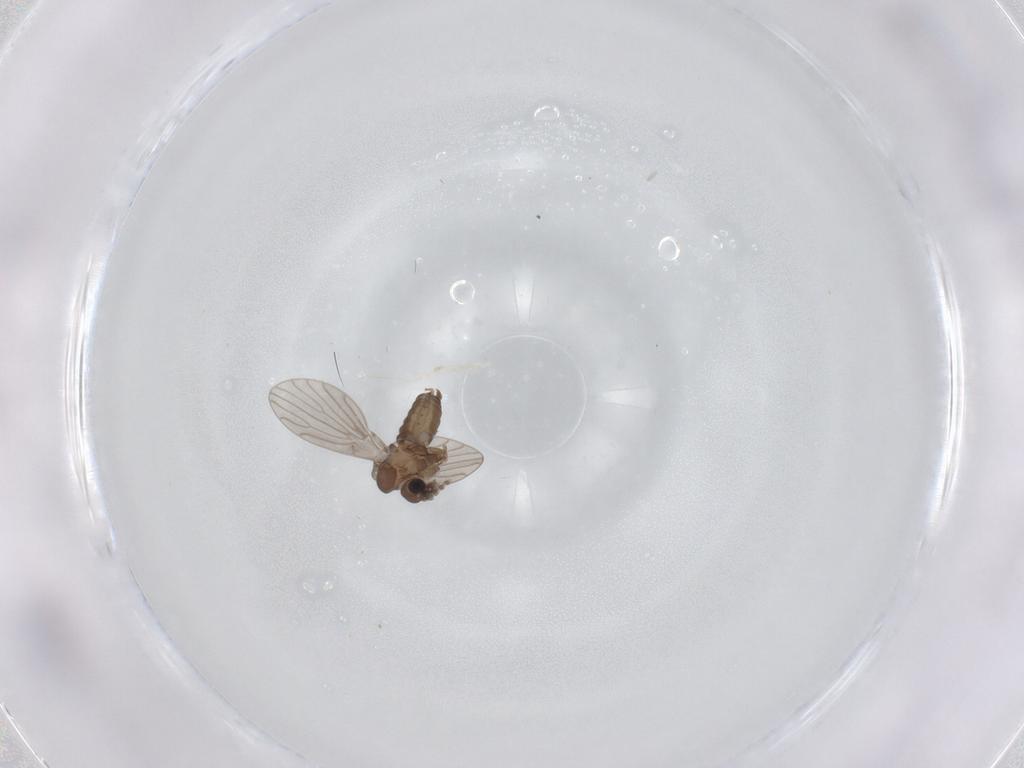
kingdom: Animalia
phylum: Arthropoda
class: Insecta
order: Diptera
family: Psychodidae
